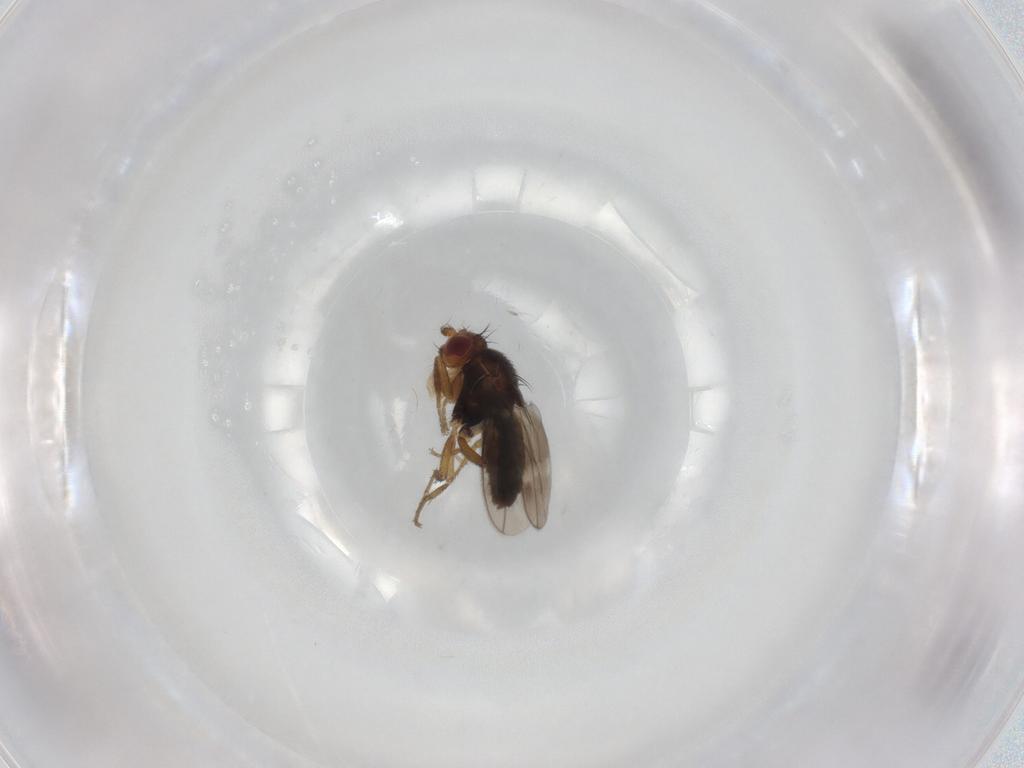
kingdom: Animalia
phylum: Arthropoda
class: Insecta
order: Diptera
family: Sphaeroceridae
